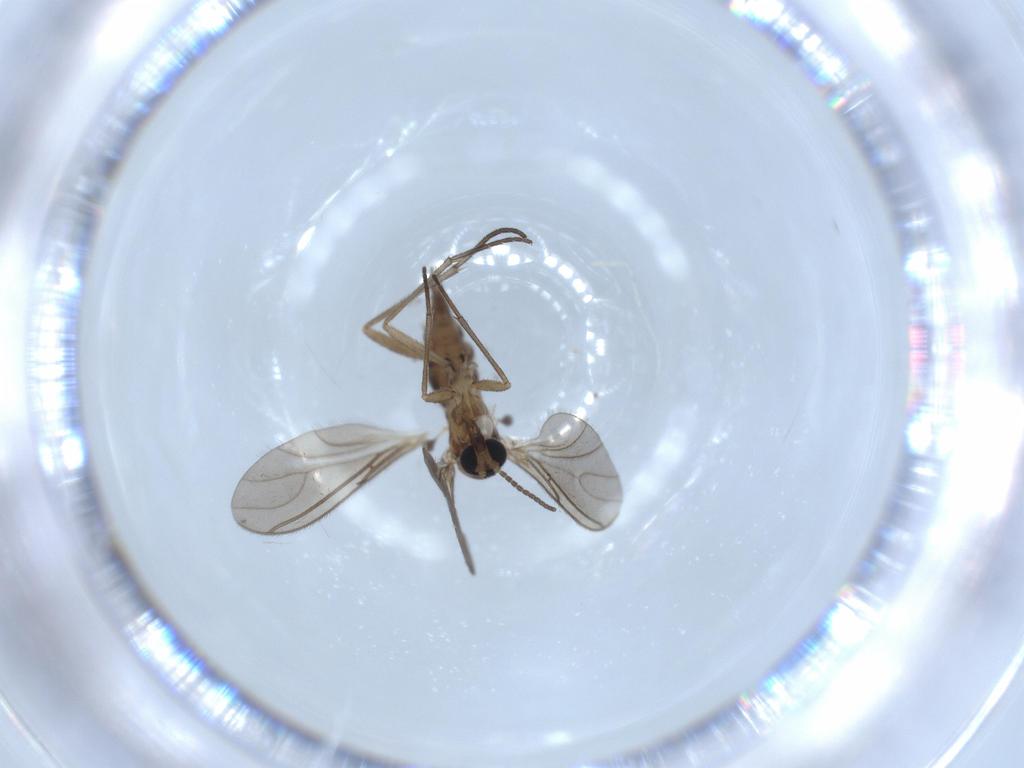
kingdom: Animalia
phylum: Arthropoda
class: Insecta
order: Diptera
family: Sciaridae
